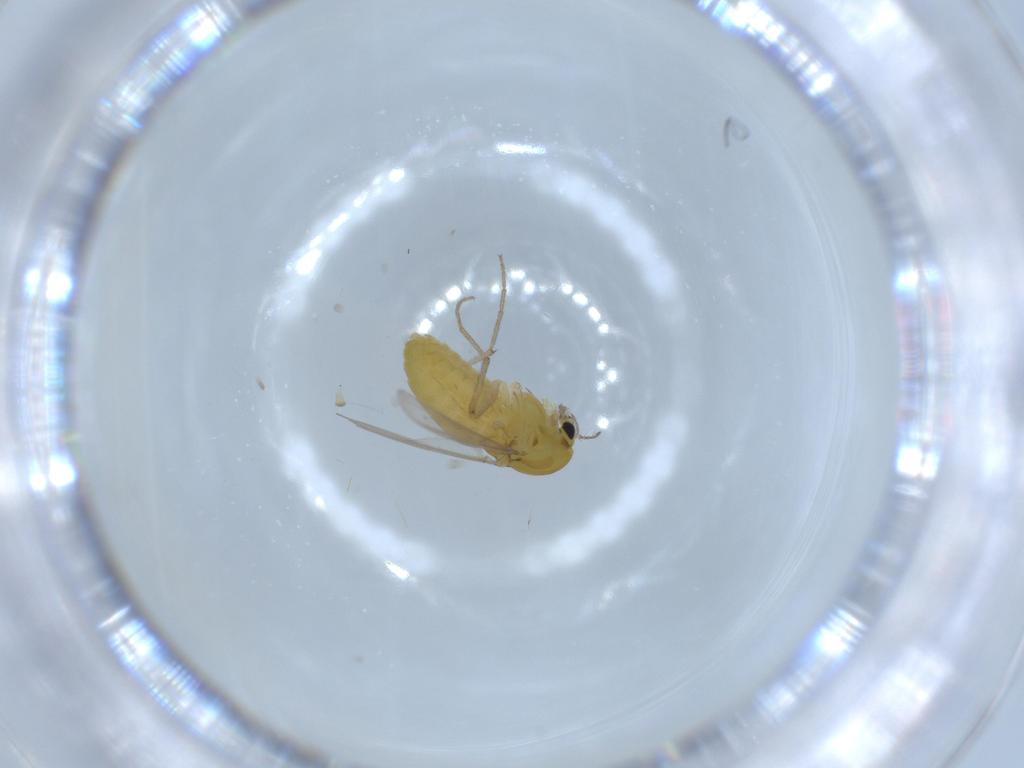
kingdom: Animalia
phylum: Arthropoda
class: Insecta
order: Diptera
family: Chironomidae
